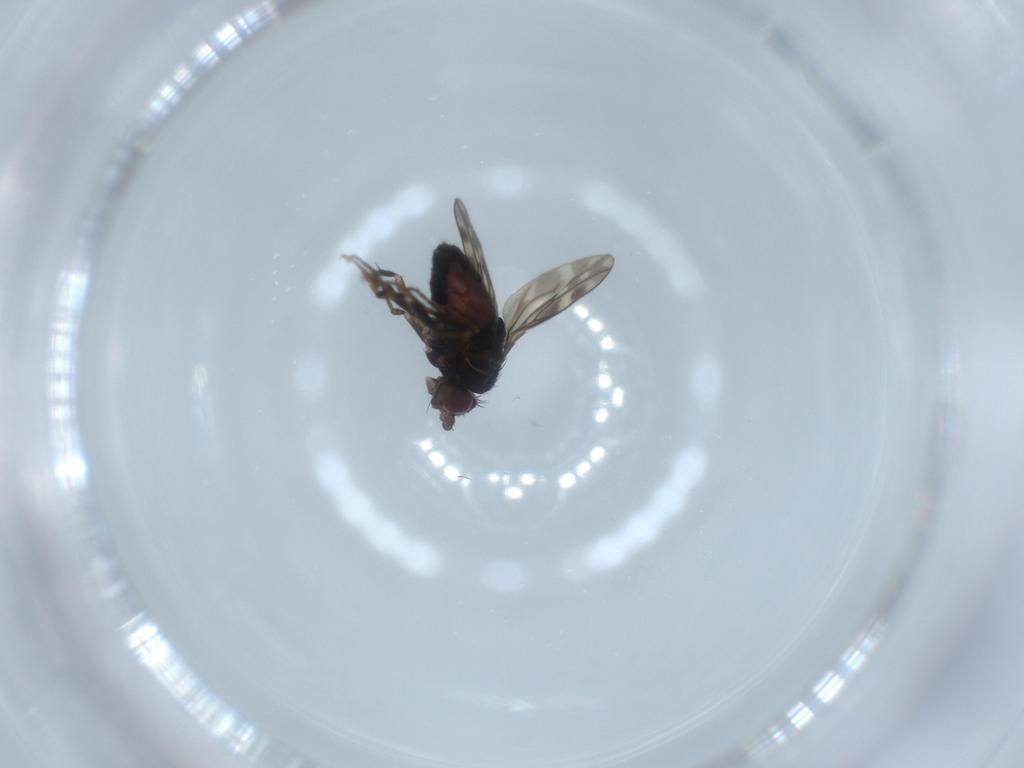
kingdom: Animalia
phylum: Arthropoda
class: Insecta
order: Diptera
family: Sphaeroceridae
